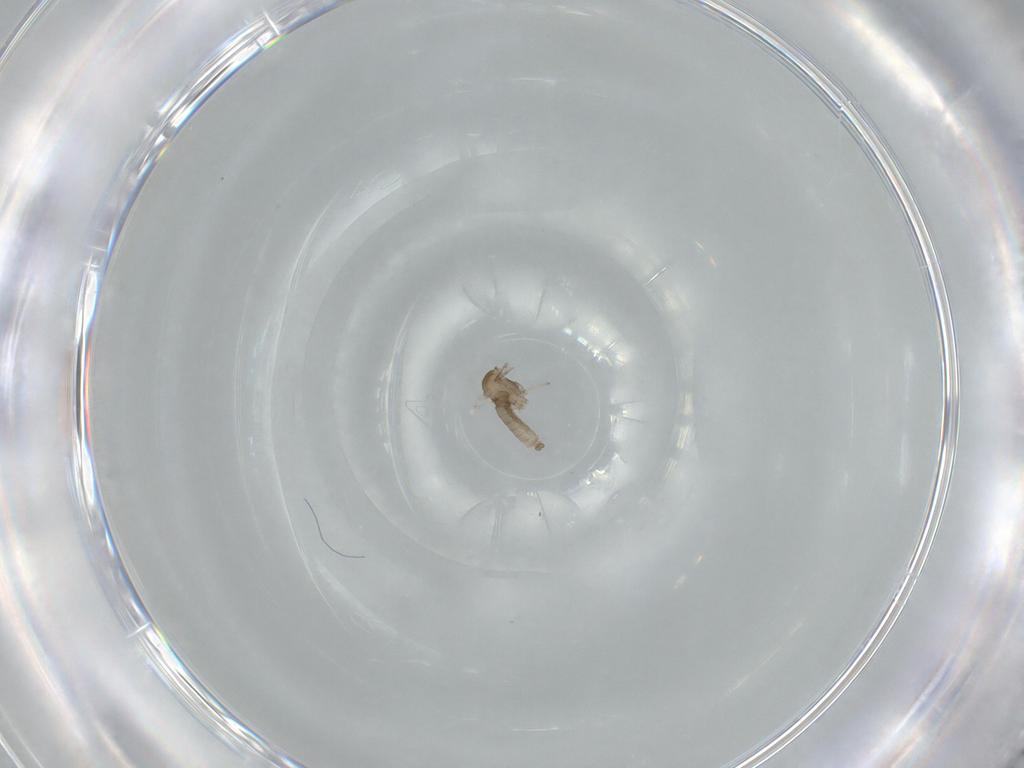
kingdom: Animalia
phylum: Arthropoda
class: Insecta
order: Diptera
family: Cecidomyiidae
